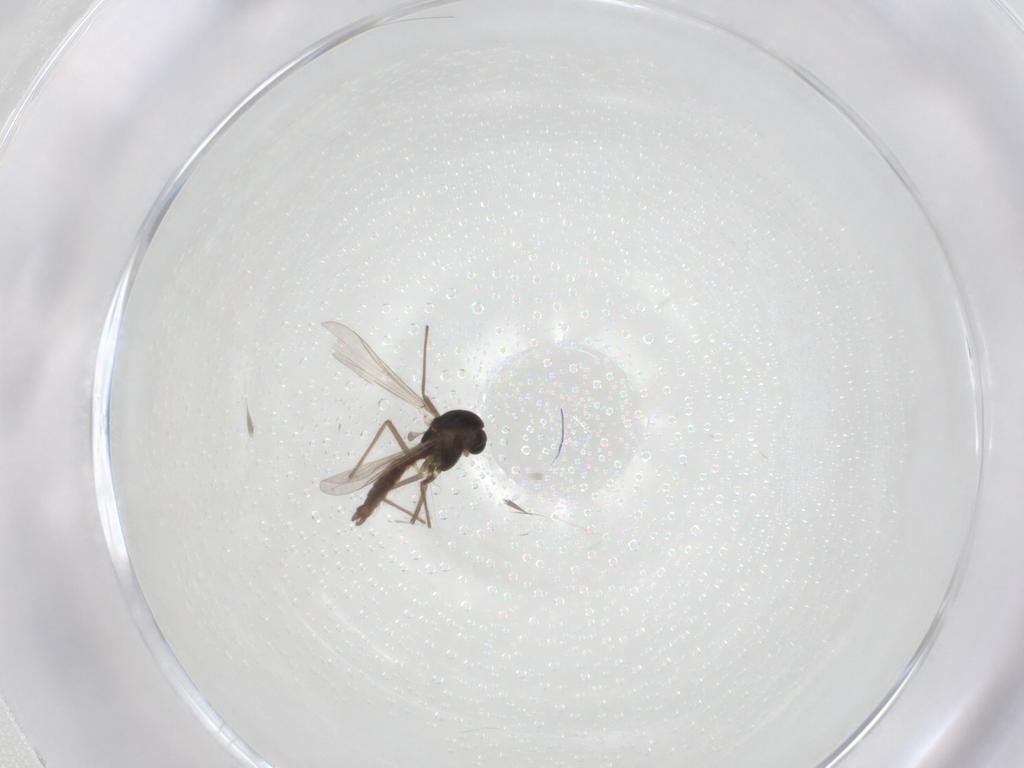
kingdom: Animalia
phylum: Arthropoda
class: Insecta
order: Diptera
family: Chironomidae
